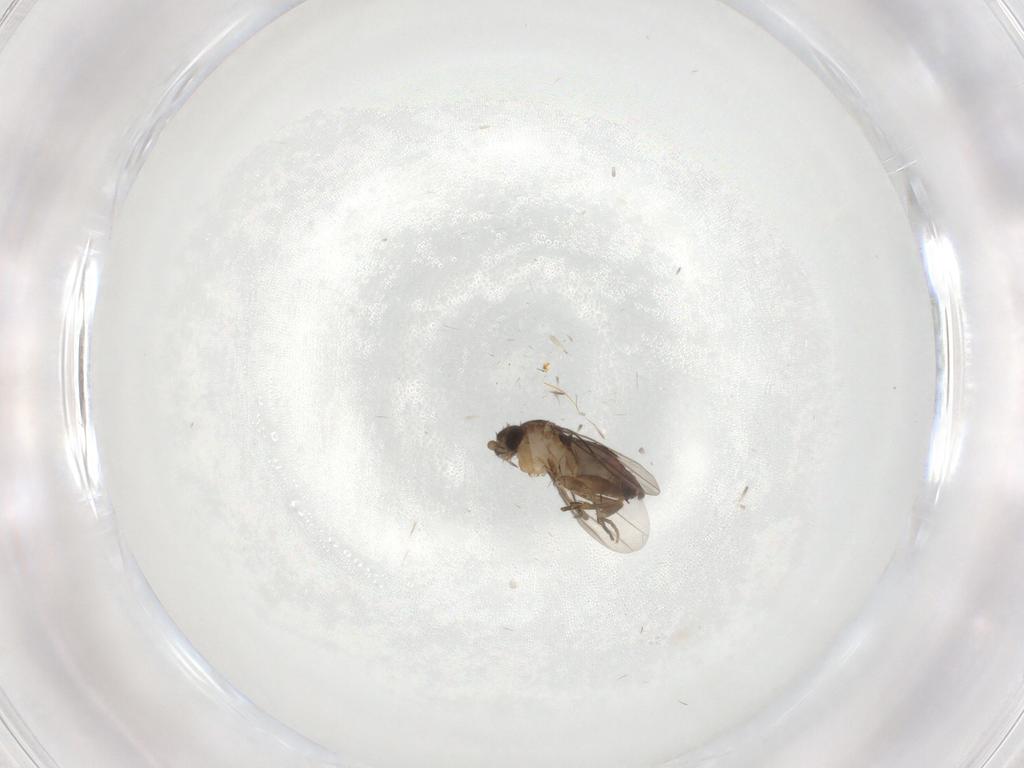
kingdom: Animalia
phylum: Arthropoda
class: Insecta
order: Diptera
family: Phoridae
